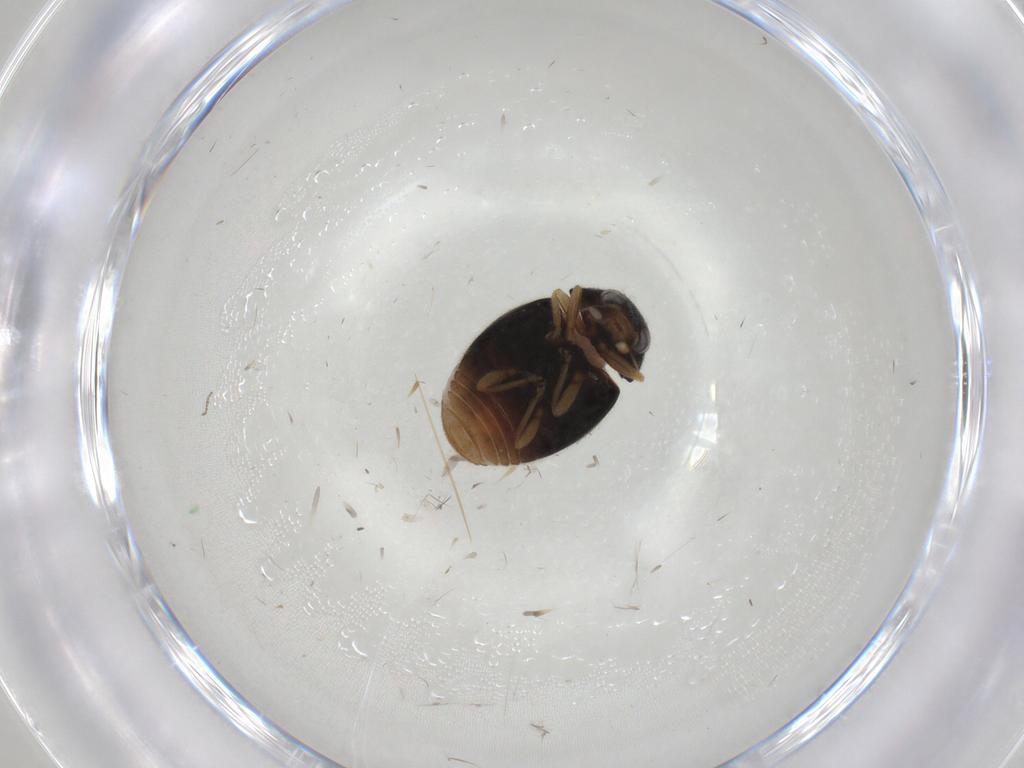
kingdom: Animalia
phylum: Arthropoda
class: Insecta
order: Coleoptera
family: Coccinellidae
